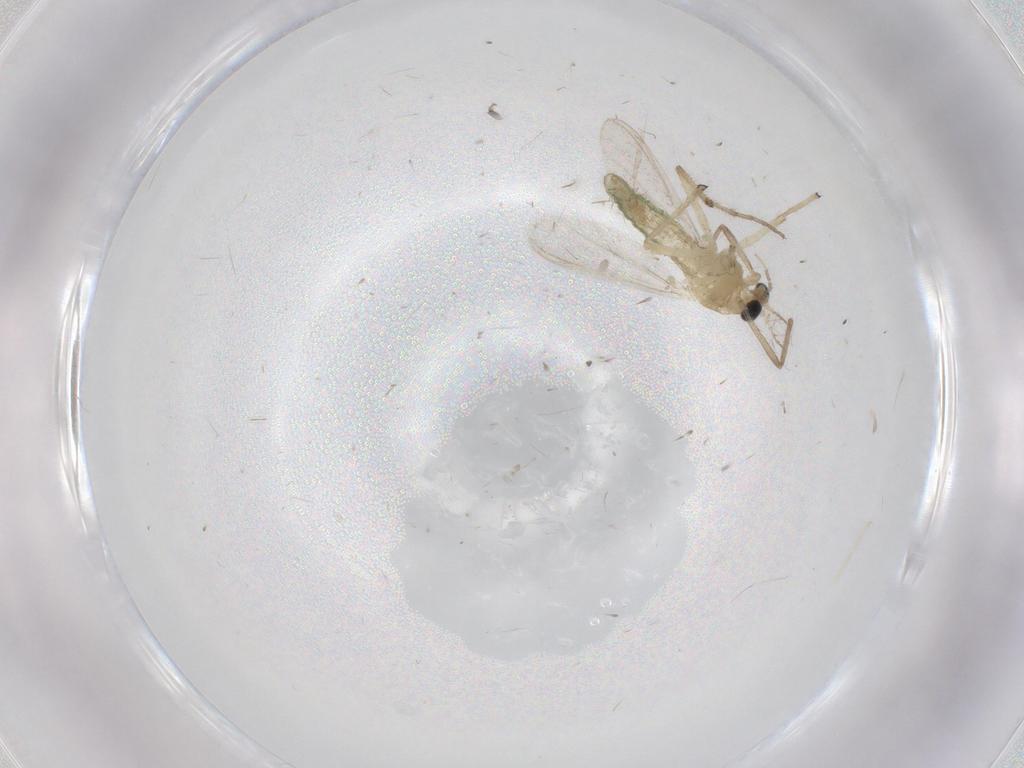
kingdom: Animalia
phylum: Arthropoda
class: Insecta
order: Diptera
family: Chironomidae
